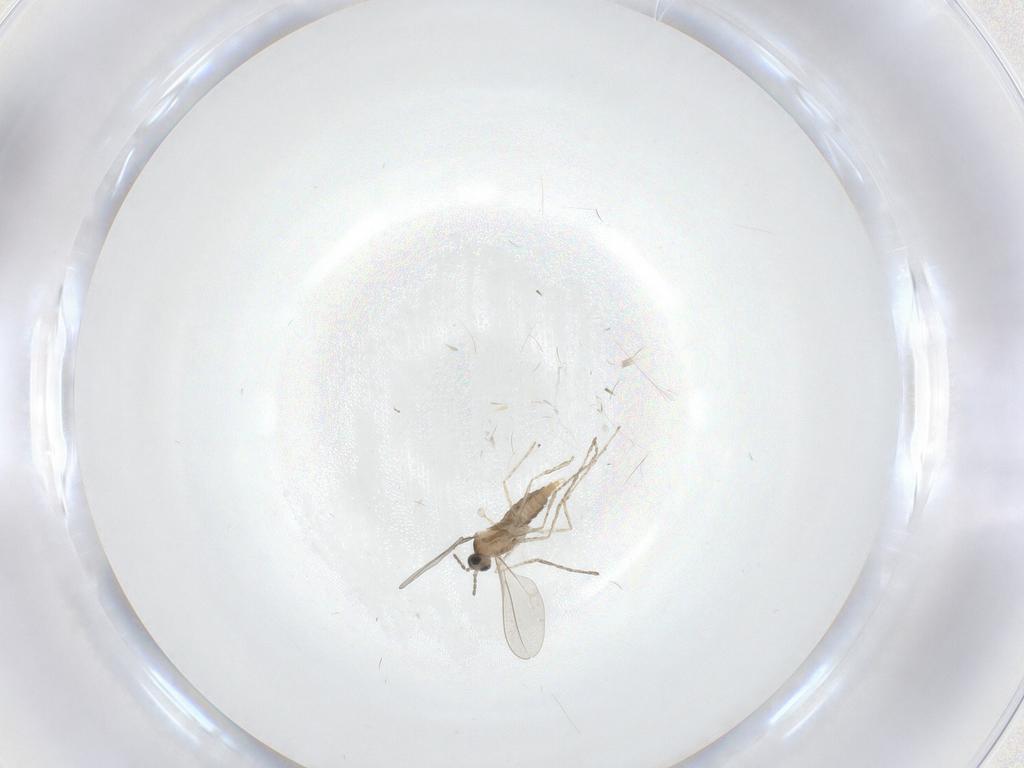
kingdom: Animalia
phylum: Arthropoda
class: Insecta
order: Diptera
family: Cecidomyiidae
